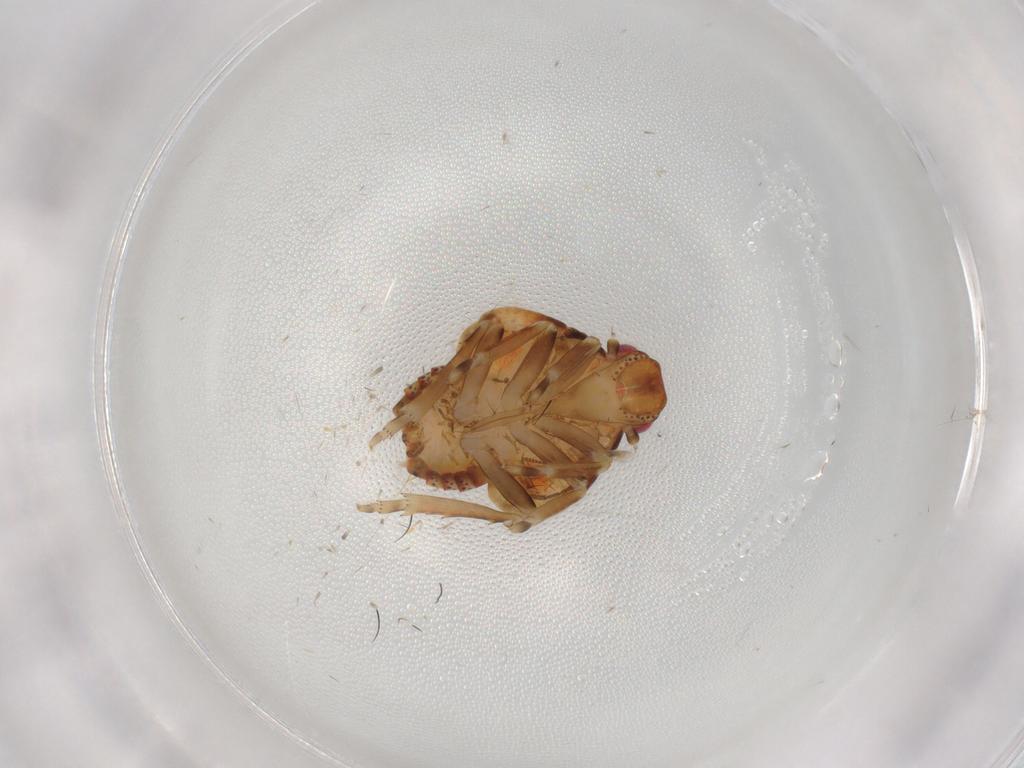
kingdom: Animalia
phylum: Arthropoda
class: Insecta
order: Hemiptera
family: Flatidae
